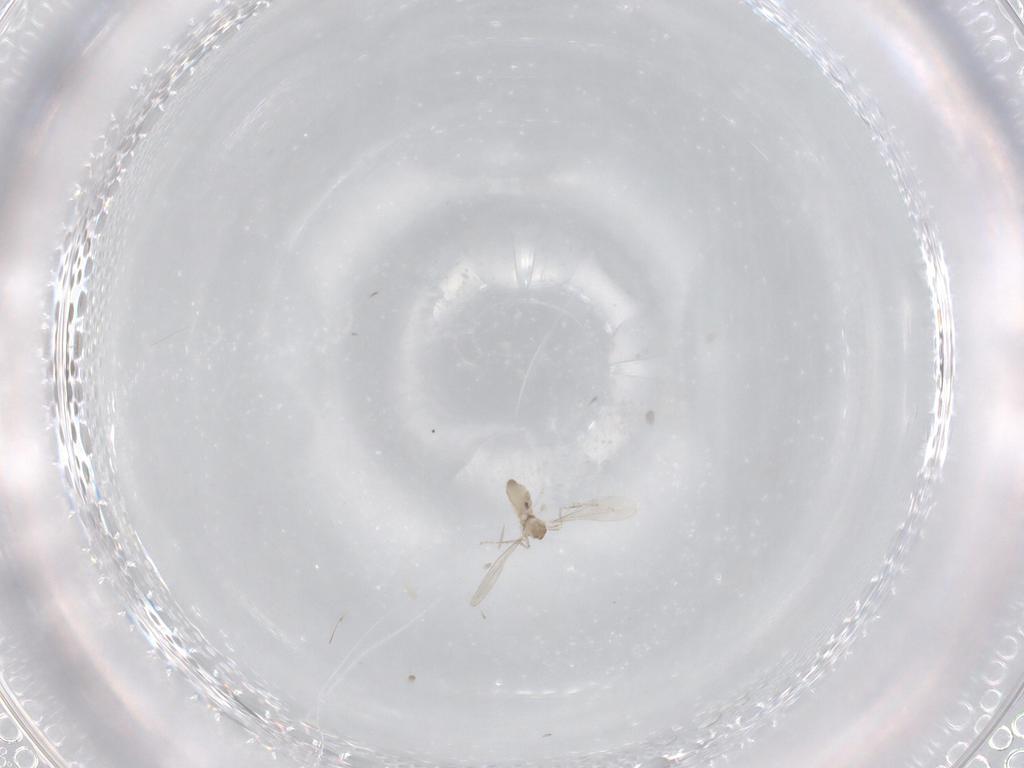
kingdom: Animalia
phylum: Arthropoda
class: Insecta
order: Diptera
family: Cecidomyiidae
